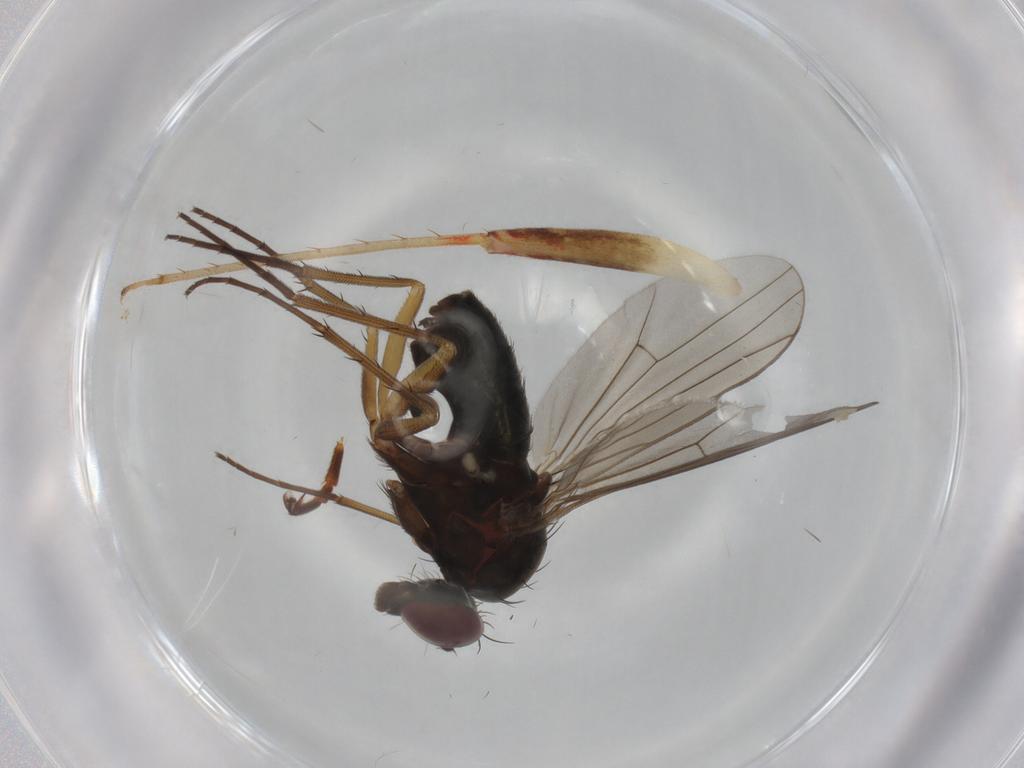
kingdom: Animalia
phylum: Arthropoda
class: Insecta
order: Diptera
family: Dolichopodidae
